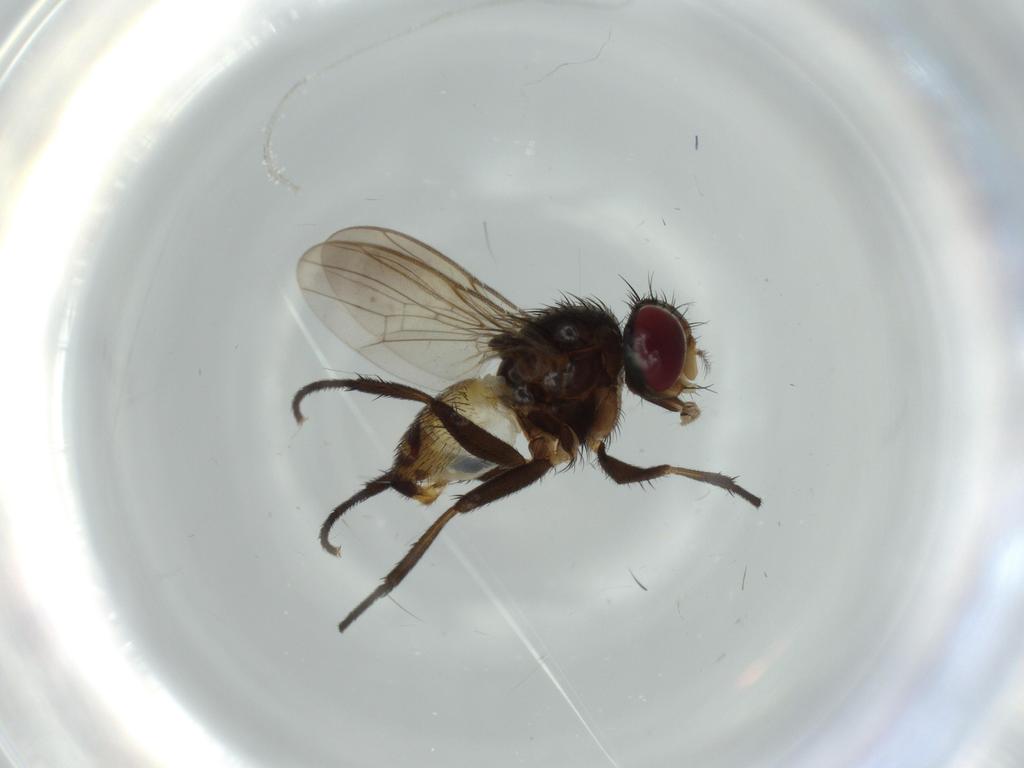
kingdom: Animalia
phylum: Arthropoda
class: Insecta
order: Diptera
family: Anthomyiidae
